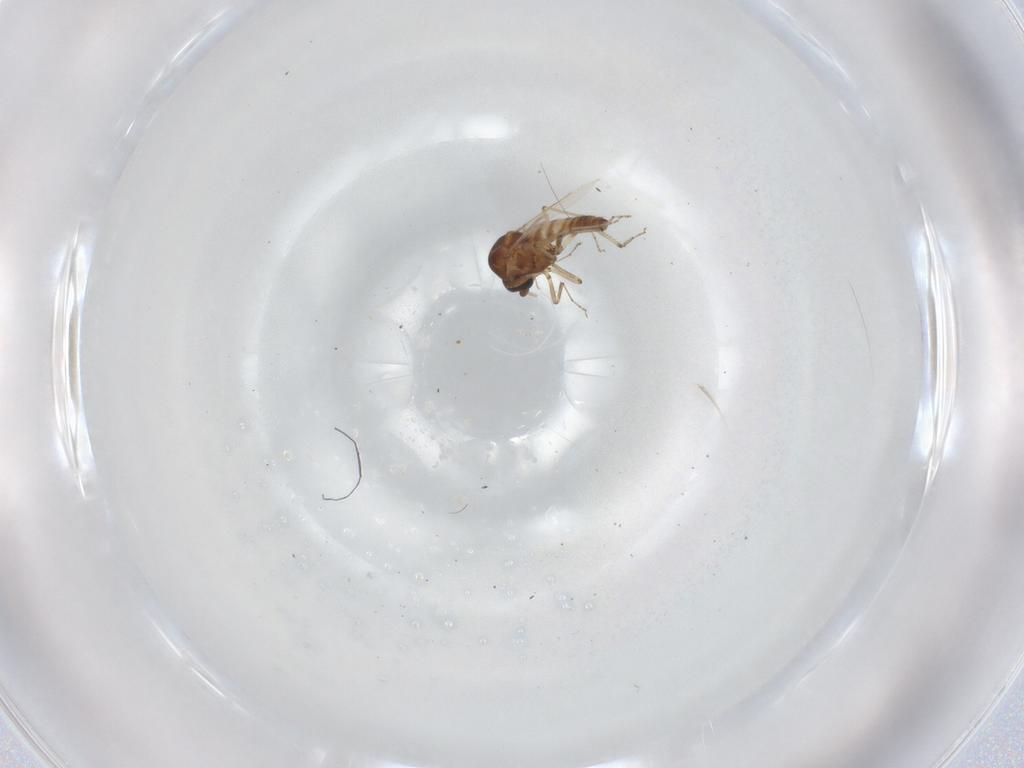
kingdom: Animalia
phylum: Arthropoda
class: Insecta
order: Diptera
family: Ceratopogonidae
